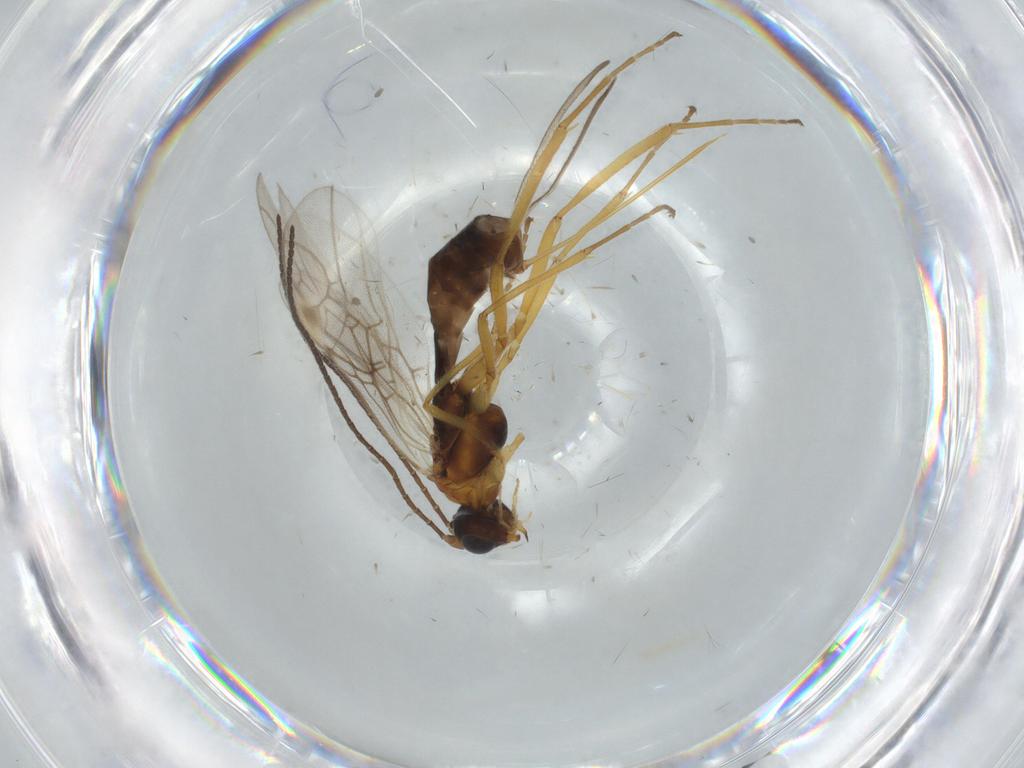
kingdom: Animalia
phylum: Arthropoda
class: Insecta
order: Hymenoptera
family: Braconidae
